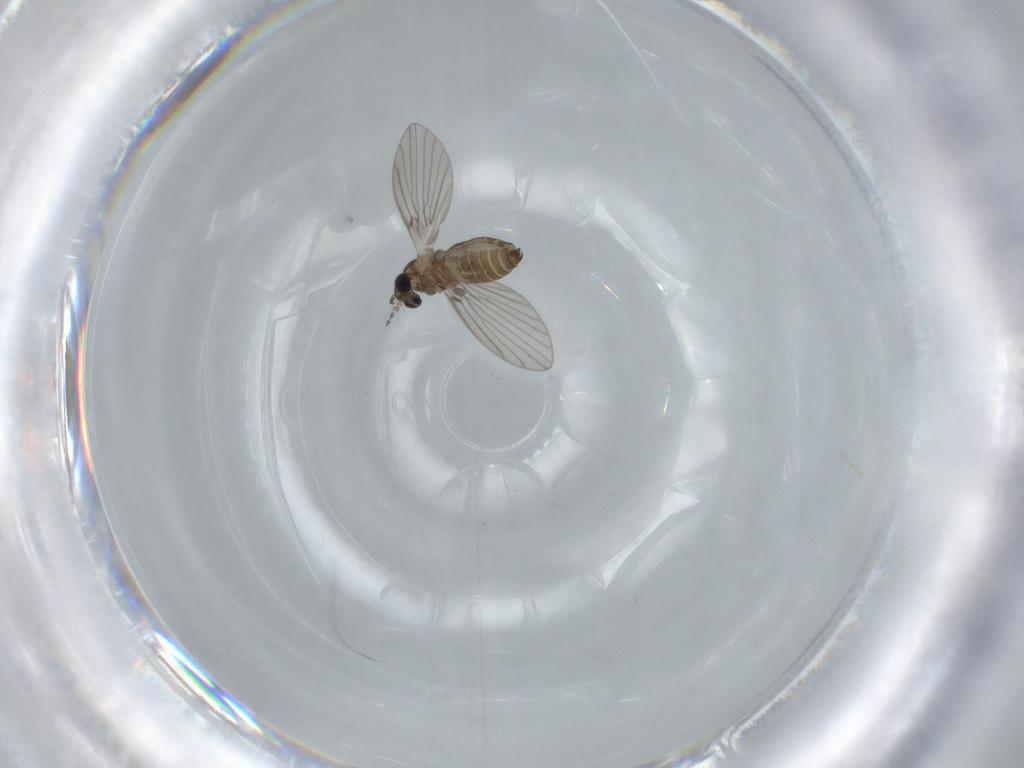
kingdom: Animalia
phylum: Arthropoda
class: Insecta
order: Diptera
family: Psychodidae
